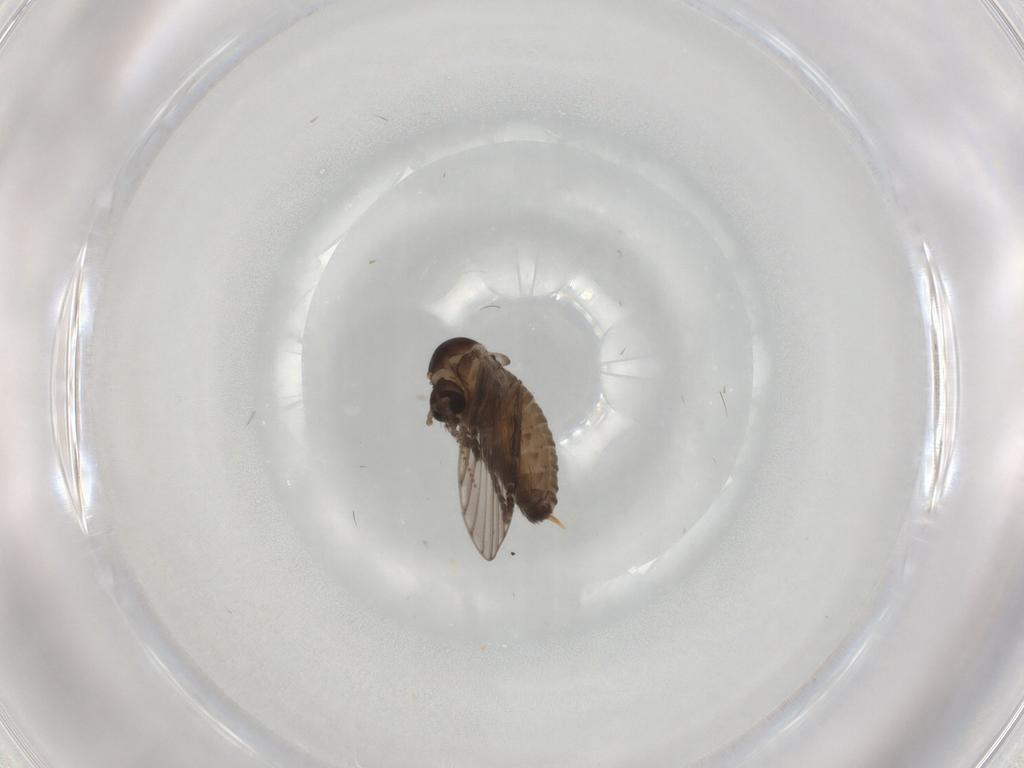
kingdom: Animalia
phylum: Arthropoda
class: Insecta
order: Diptera
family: Psychodidae
